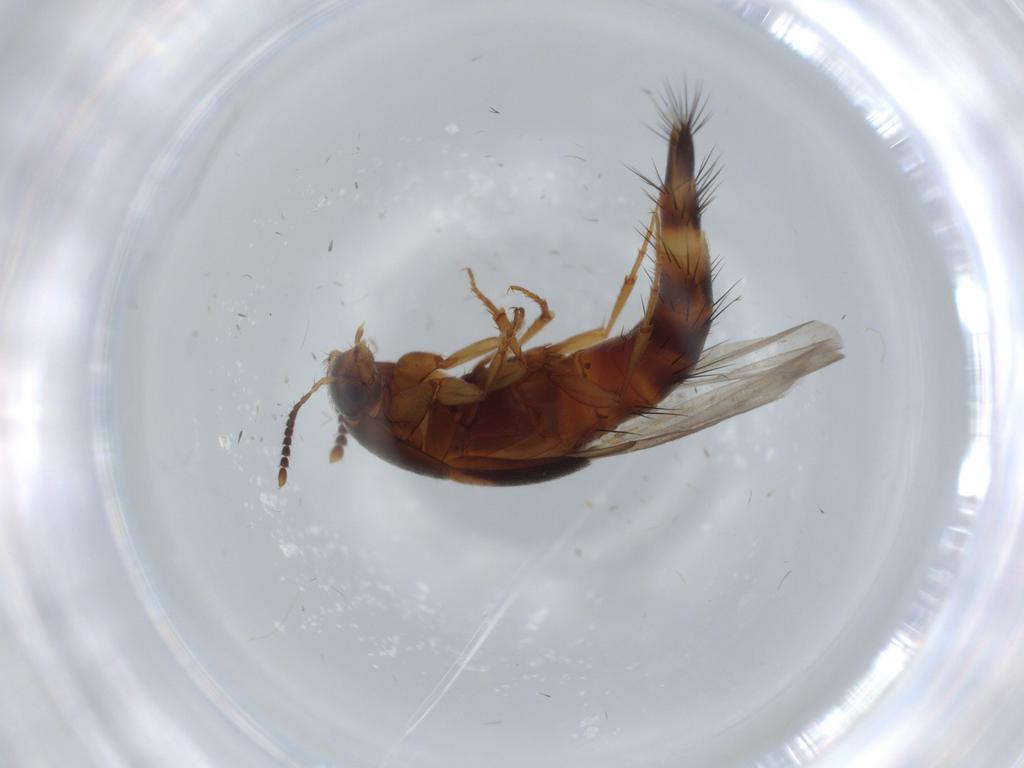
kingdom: Animalia
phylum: Arthropoda
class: Insecta
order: Coleoptera
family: Staphylinidae
